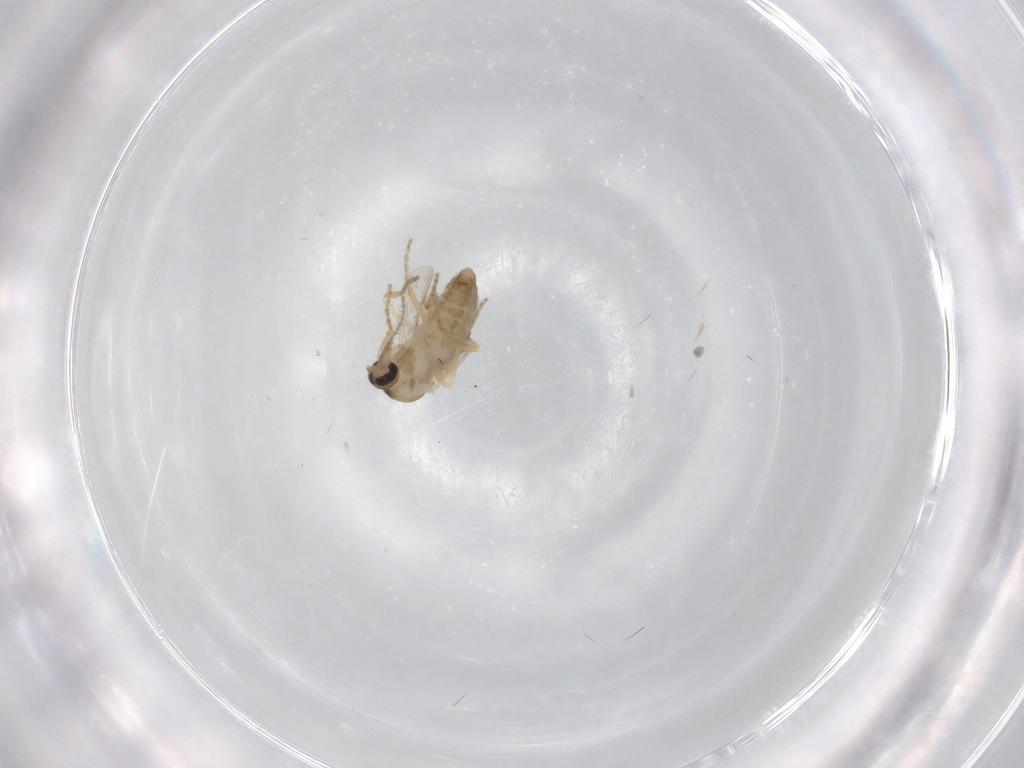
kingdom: Animalia
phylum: Arthropoda
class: Insecta
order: Diptera
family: Ceratopogonidae
